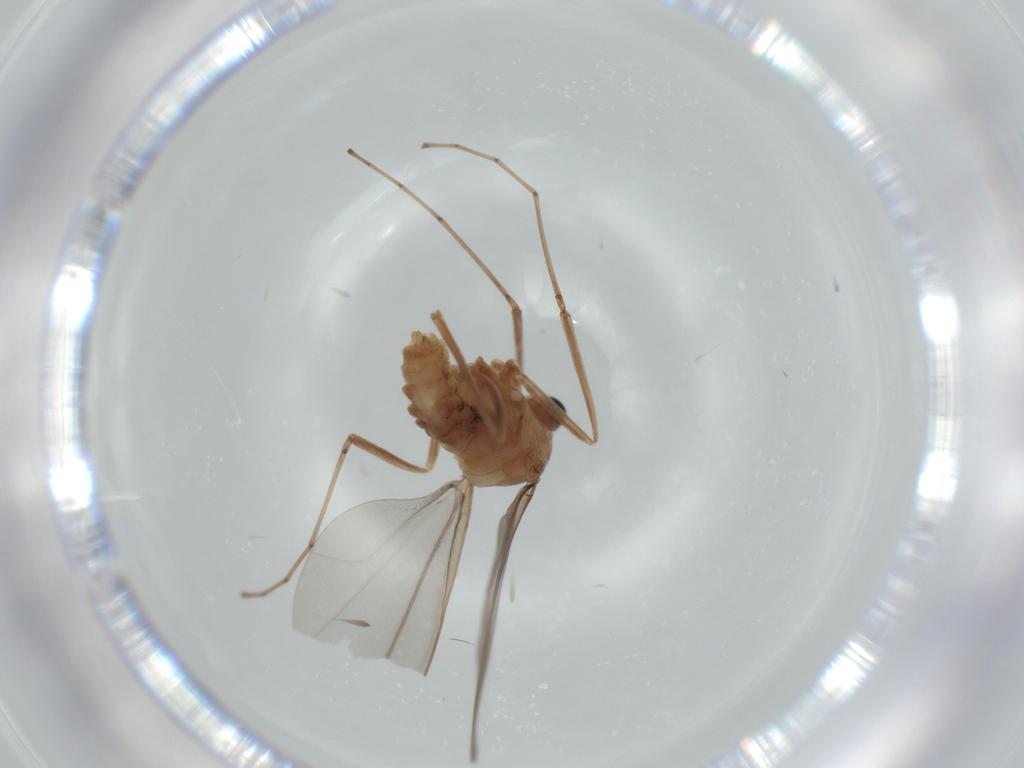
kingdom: Animalia
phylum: Arthropoda
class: Insecta
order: Diptera
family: Cecidomyiidae
